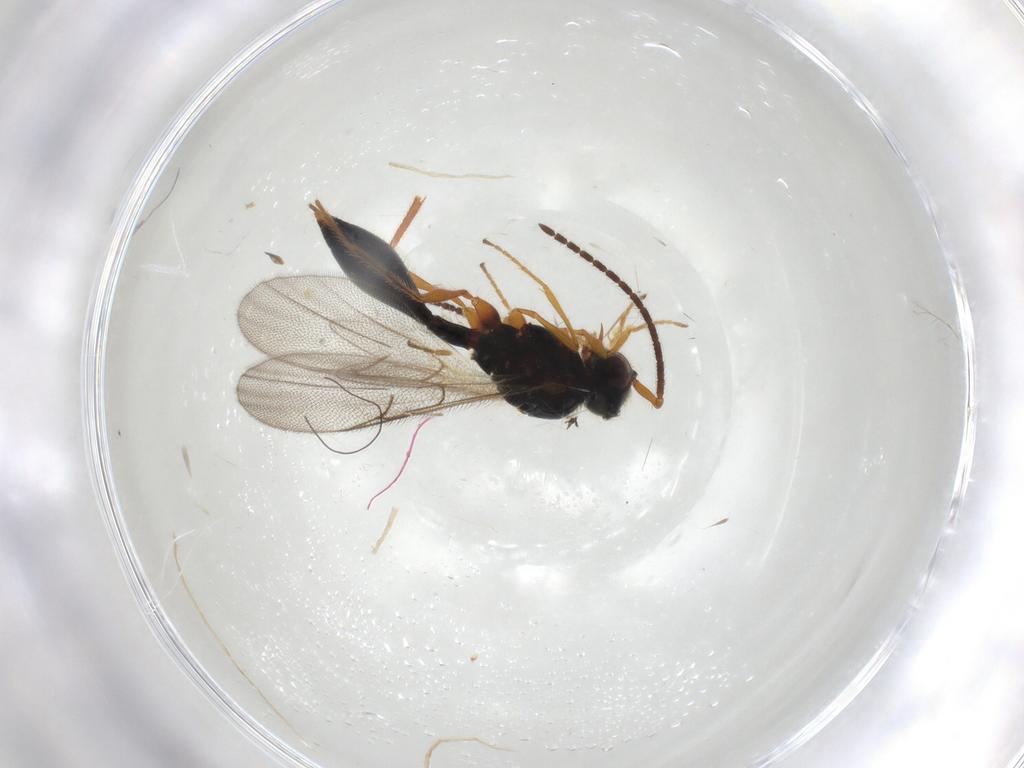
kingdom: Animalia
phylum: Arthropoda
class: Insecta
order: Hymenoptera
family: Diapriidae
